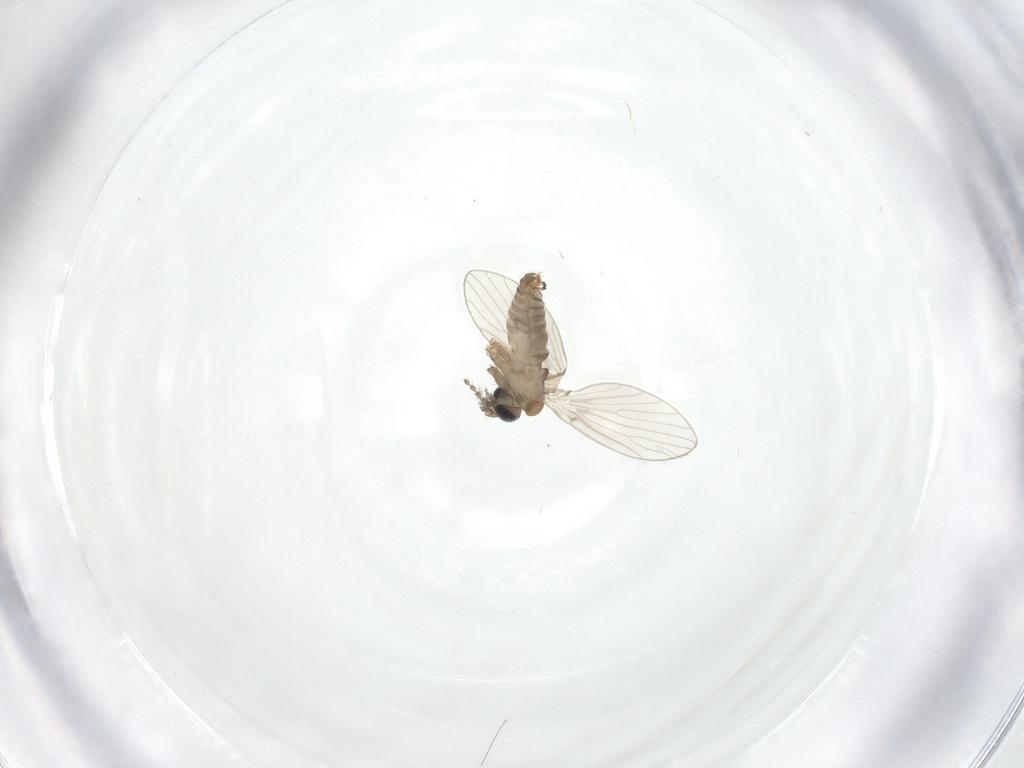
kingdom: Animalia
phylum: Arthropoda
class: Insecta
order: Diptera
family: Psychodidae
